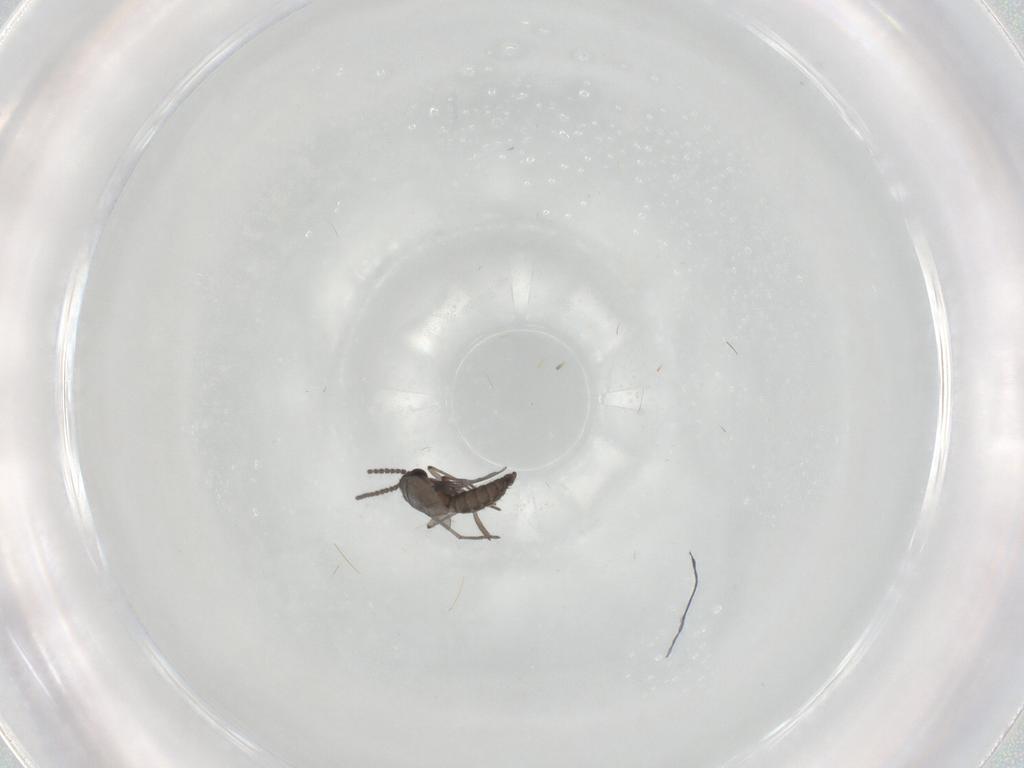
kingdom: Animalia
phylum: Arthropoda
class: Insecta
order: Diptera
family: Sciaridae
